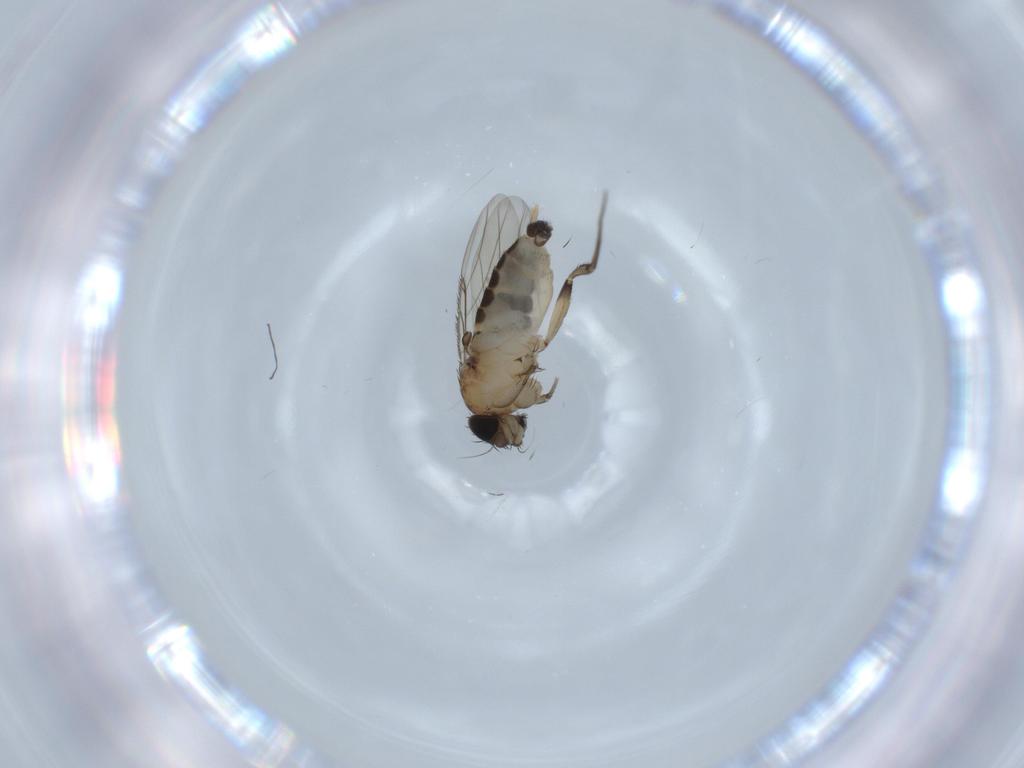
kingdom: Animalia
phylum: Arthropoda
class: Insecta
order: Diptera
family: Phoridae
